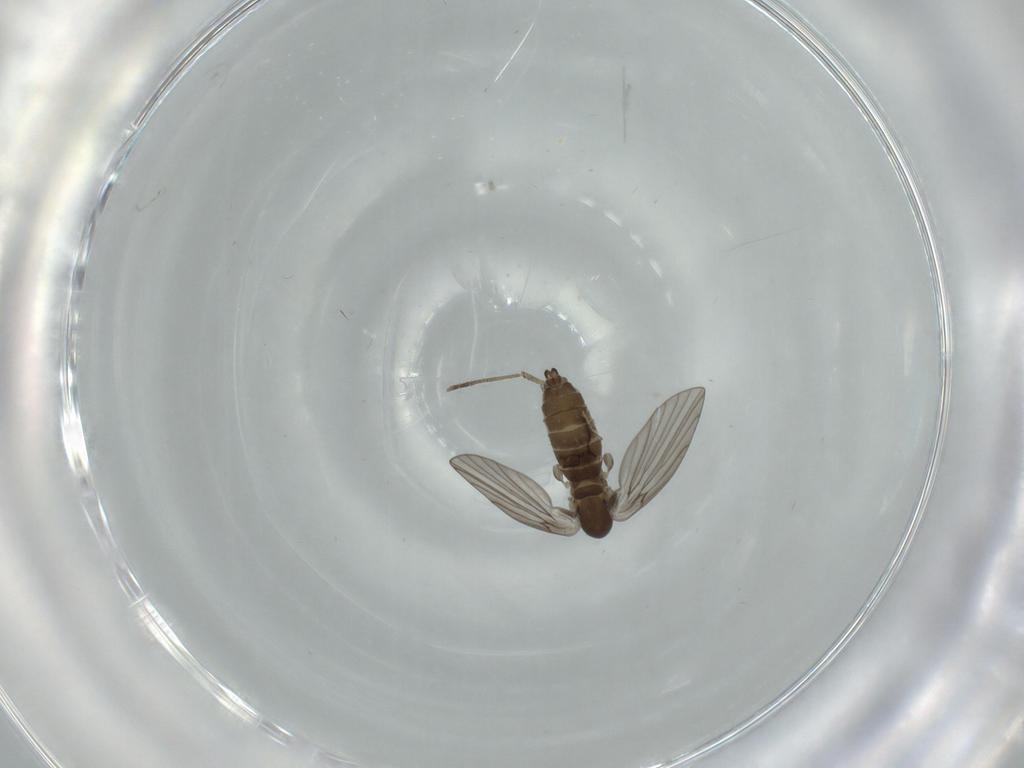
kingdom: Animalia
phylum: Arthropoda
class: Insecta
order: Diptera
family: Psychodidae
